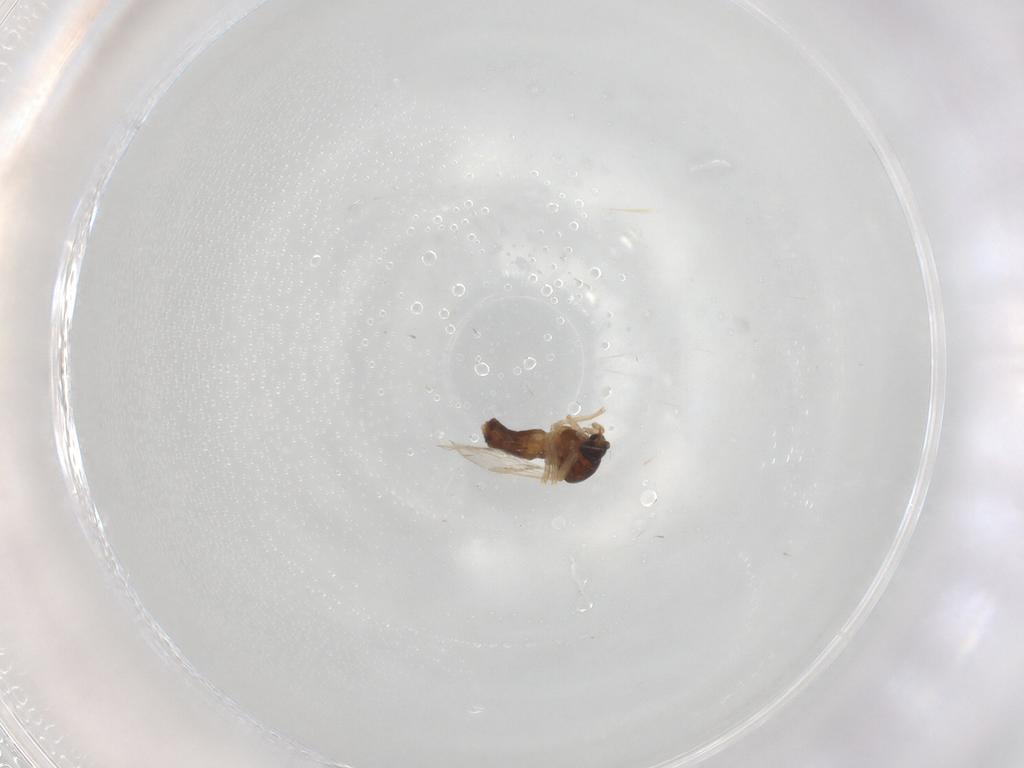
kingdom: Animalia
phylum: Arthropoda
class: Insecta
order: Diptera
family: Ceratopogonidae
